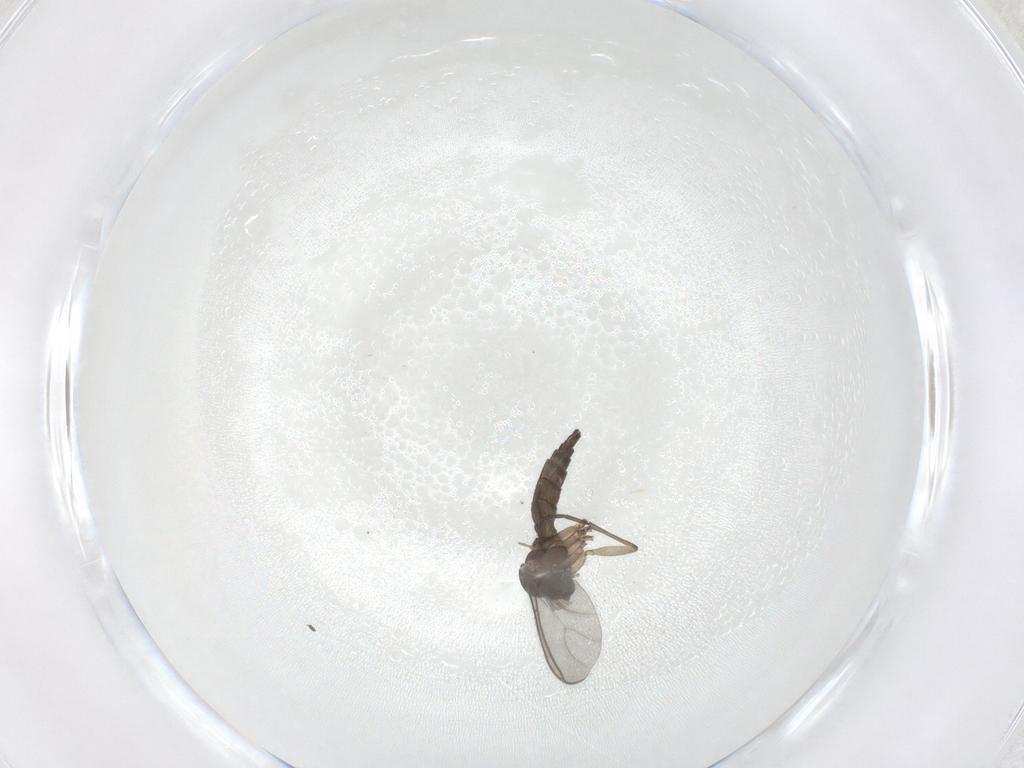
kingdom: Animalia
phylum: Arthropoda
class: Insecta
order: Diptera
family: Sciaridae
